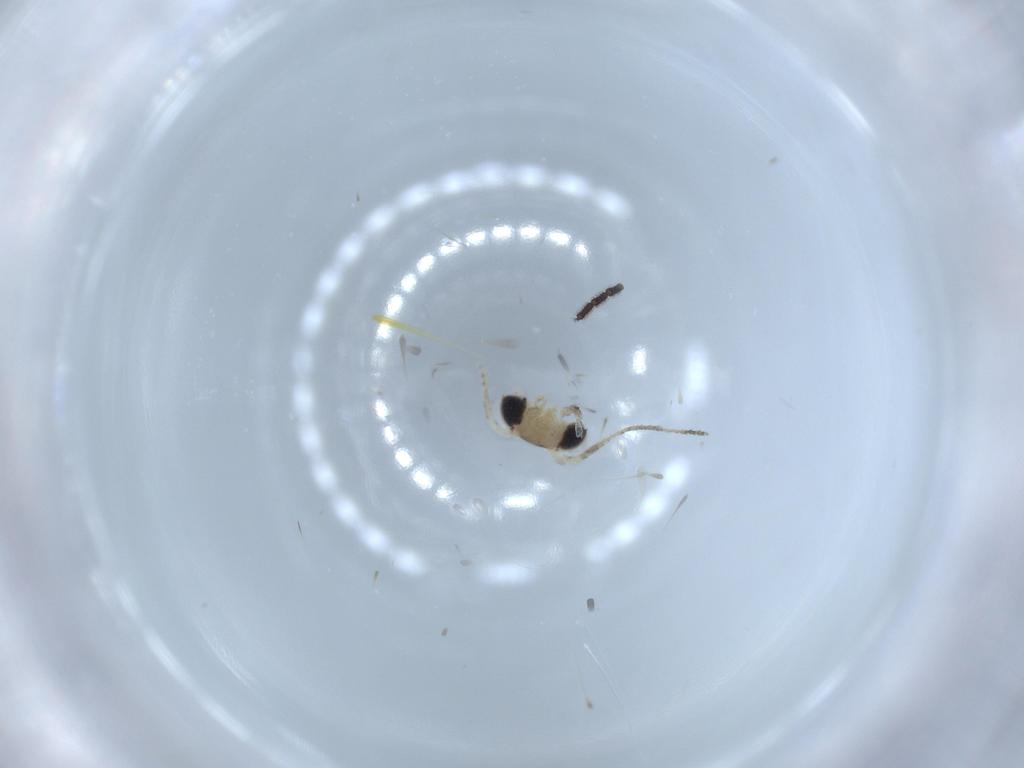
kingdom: Animalia
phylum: Arthropoda
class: Insecta
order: Lepidoptera
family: Tineidae
